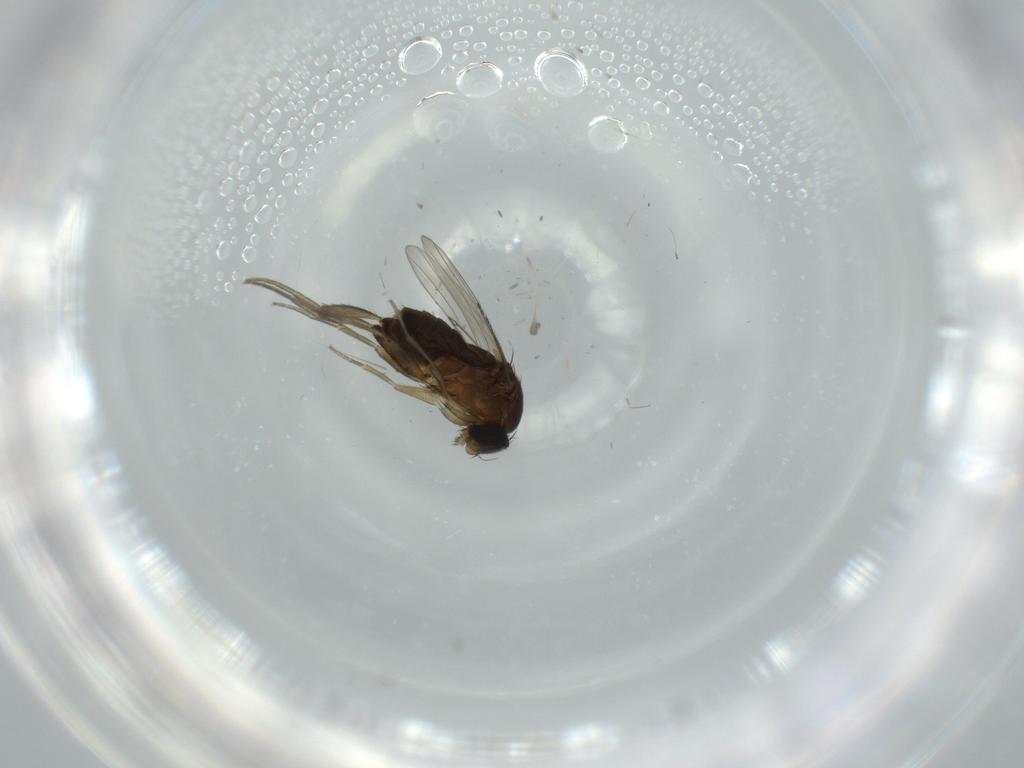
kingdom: Animalia
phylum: Arthropoda
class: Insecta
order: Diptera
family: Phoridae
